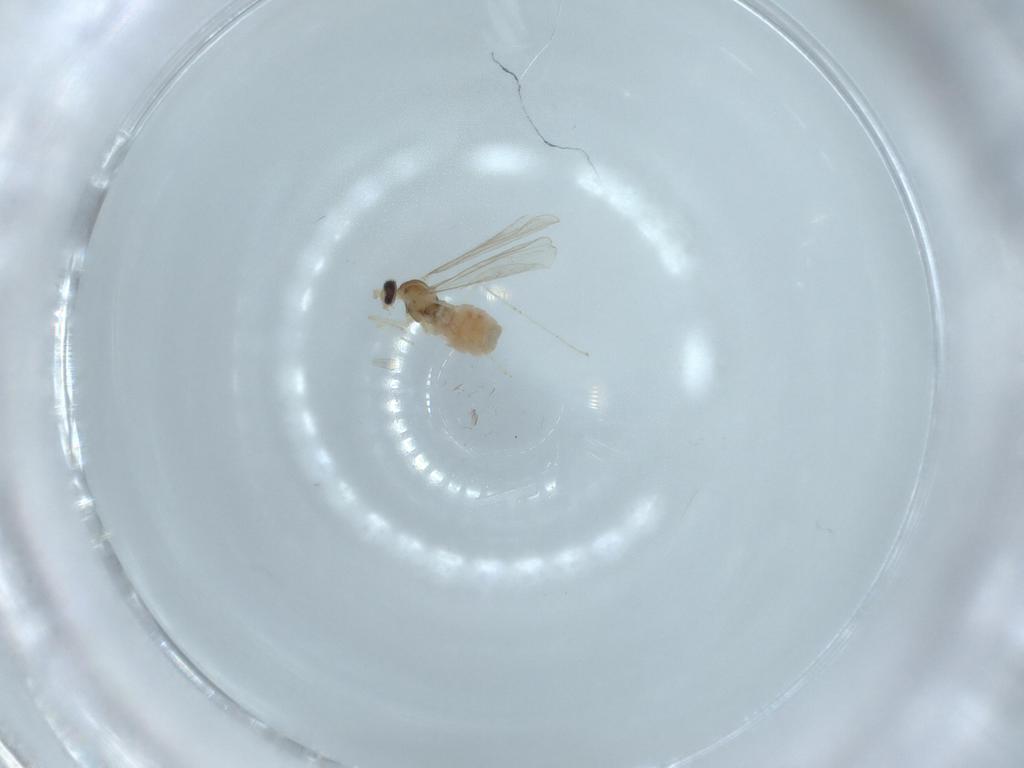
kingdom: Animalia
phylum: Arthropoda
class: Insecta
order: Diptera
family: Cecidomyiidae
